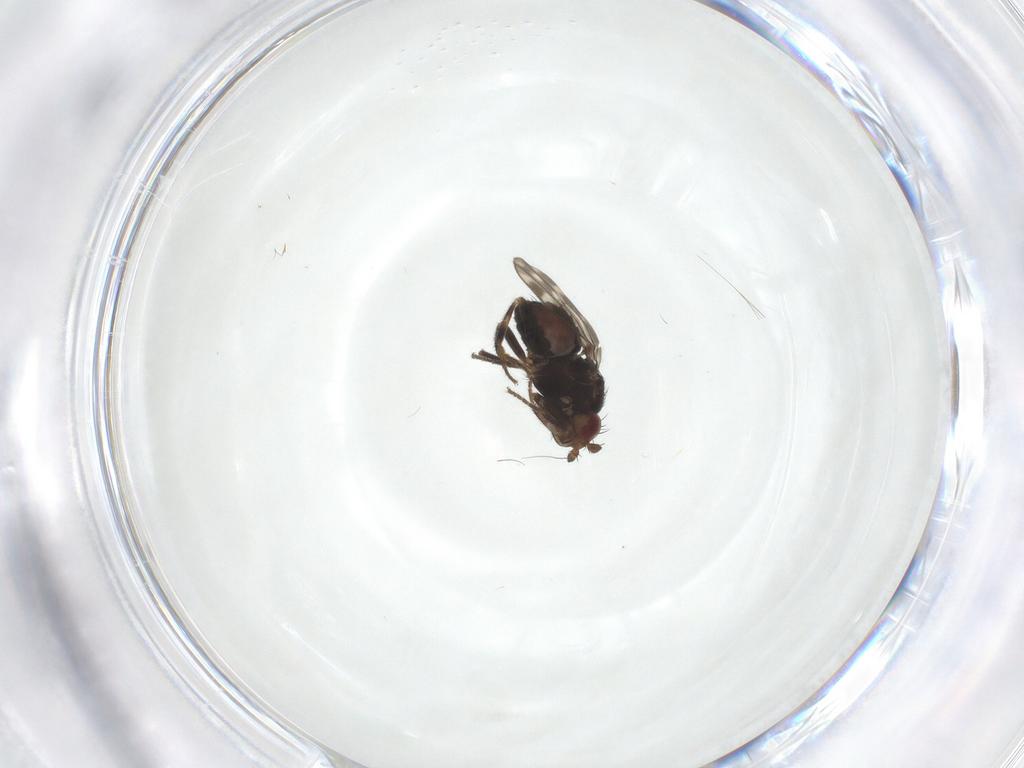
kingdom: Animalia
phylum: Arthropoda
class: Insecta
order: Diptera
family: Sphaeroceridae
